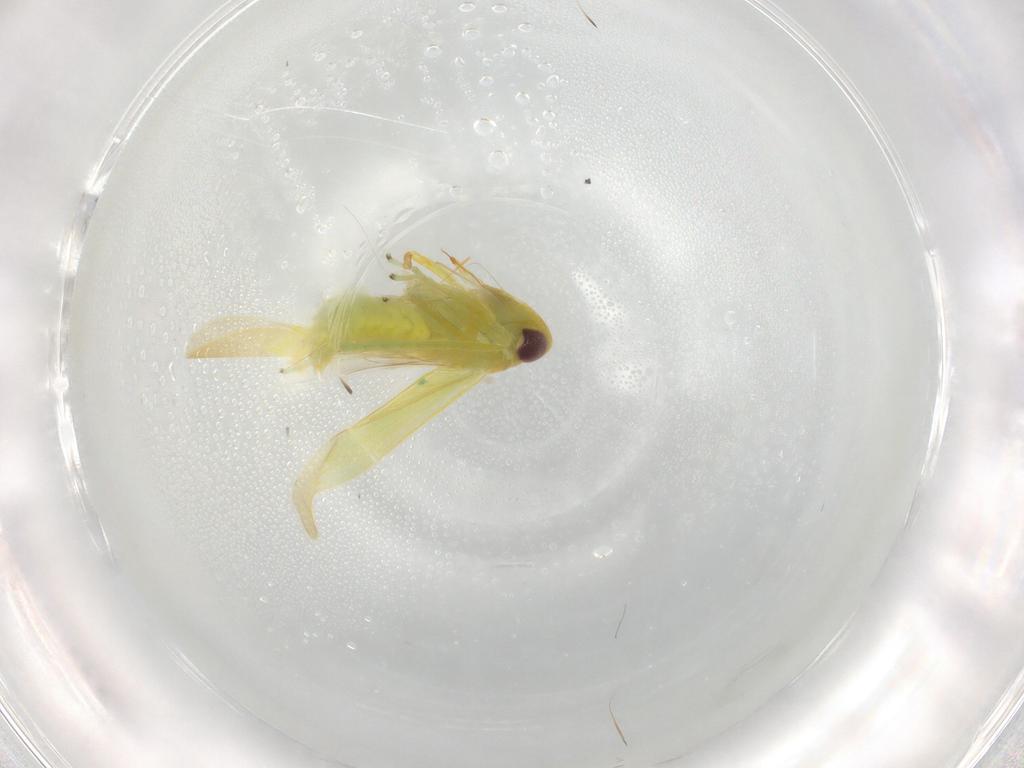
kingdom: Animalia
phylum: Arthropoda
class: Insecta
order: Hemiptera
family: Cicadellidae
